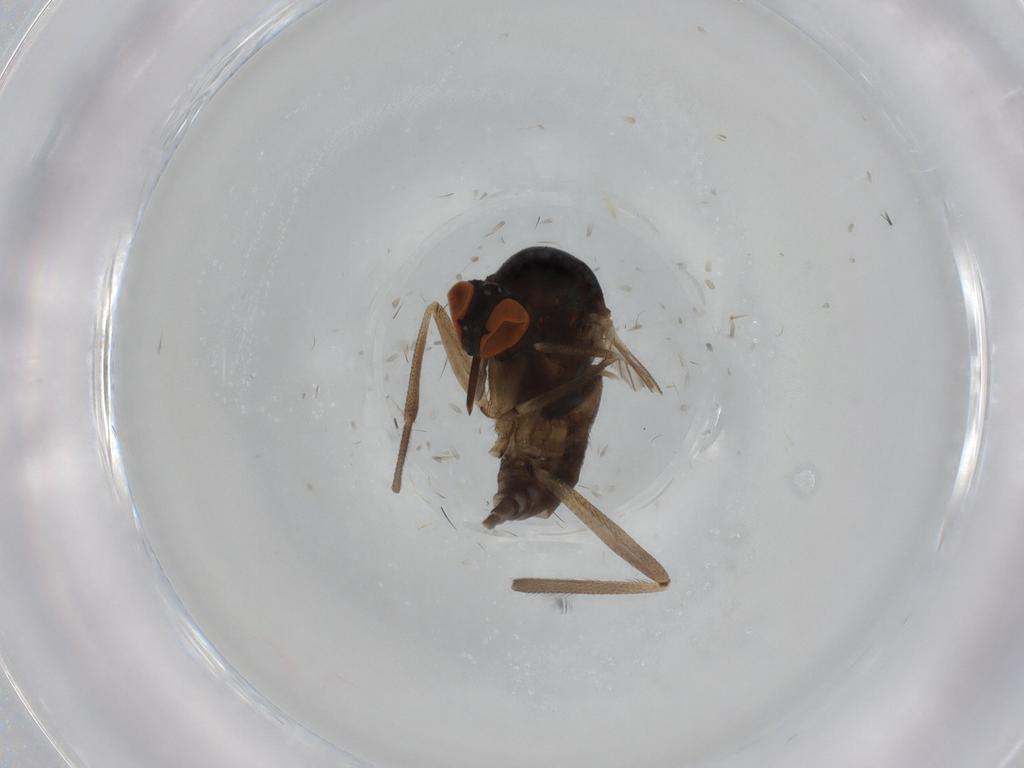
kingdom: Animalia
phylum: Arthropoda
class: Insecta
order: Diptera
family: Empididae
